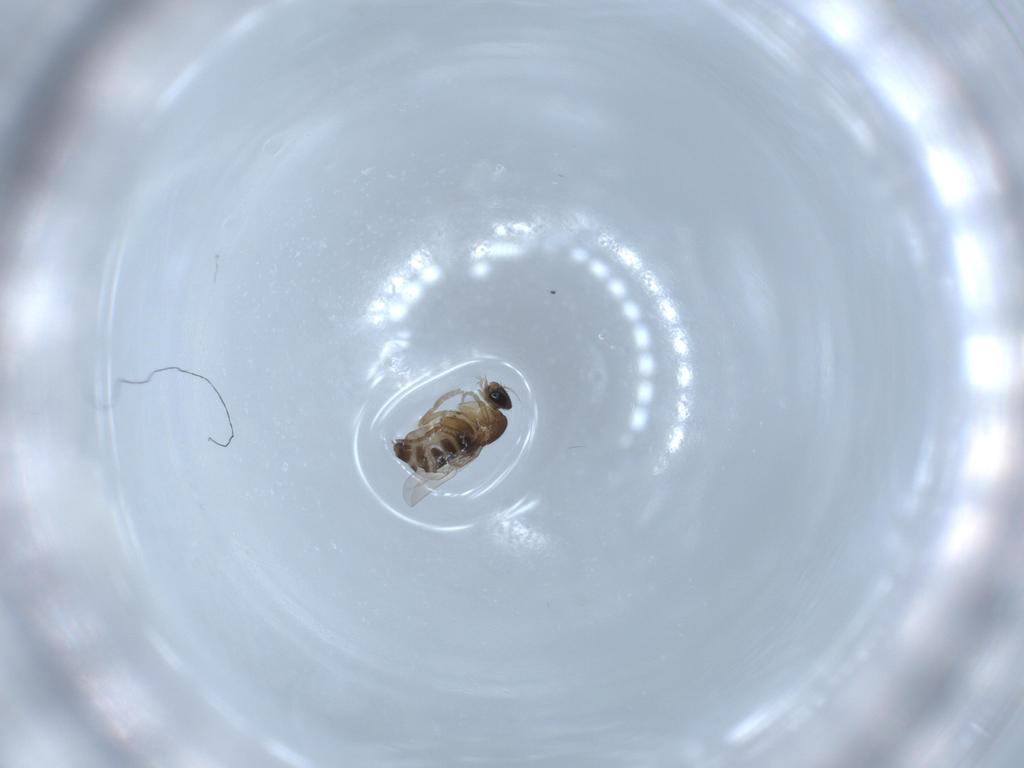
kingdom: Animalia
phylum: Arthropoda
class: Insecta
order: Diptera
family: Phoridae
